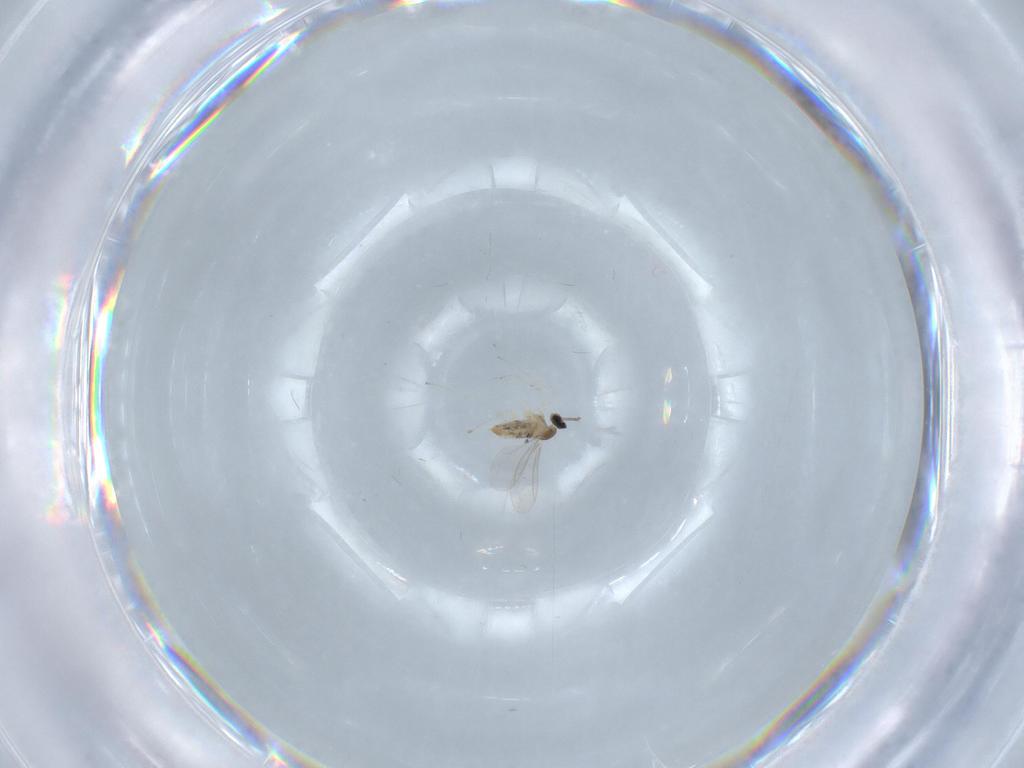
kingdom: Animalia
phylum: Arthropoda
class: Insecta
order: Diptera
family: Cecidomyiidae
